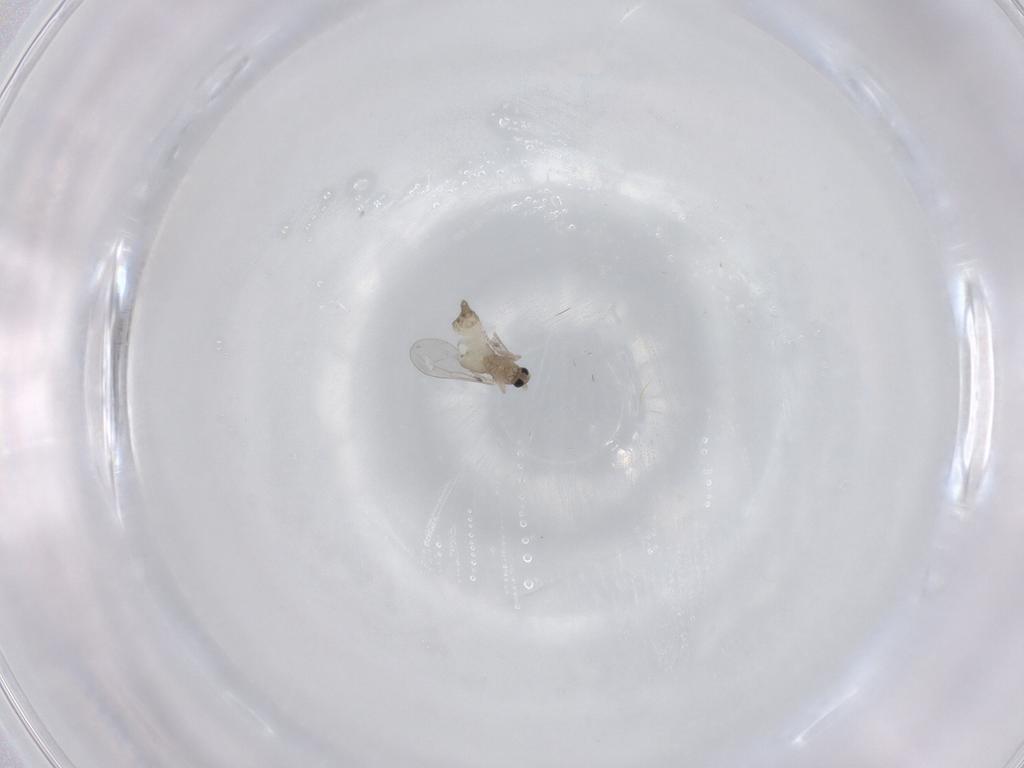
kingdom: Animalia
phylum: Arthropoda
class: Insecta
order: Diptera
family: Cecidomyiidae
